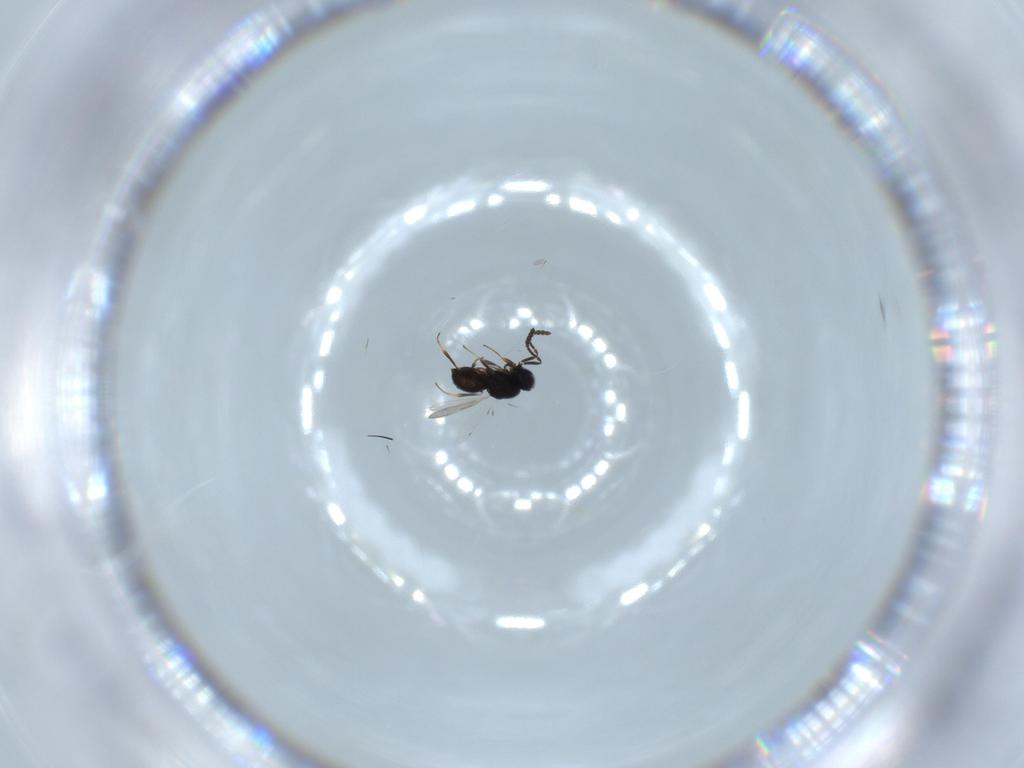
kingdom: Animalia
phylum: Arthropoda
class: Insecta
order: Hymenoptera
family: Scelionidae
